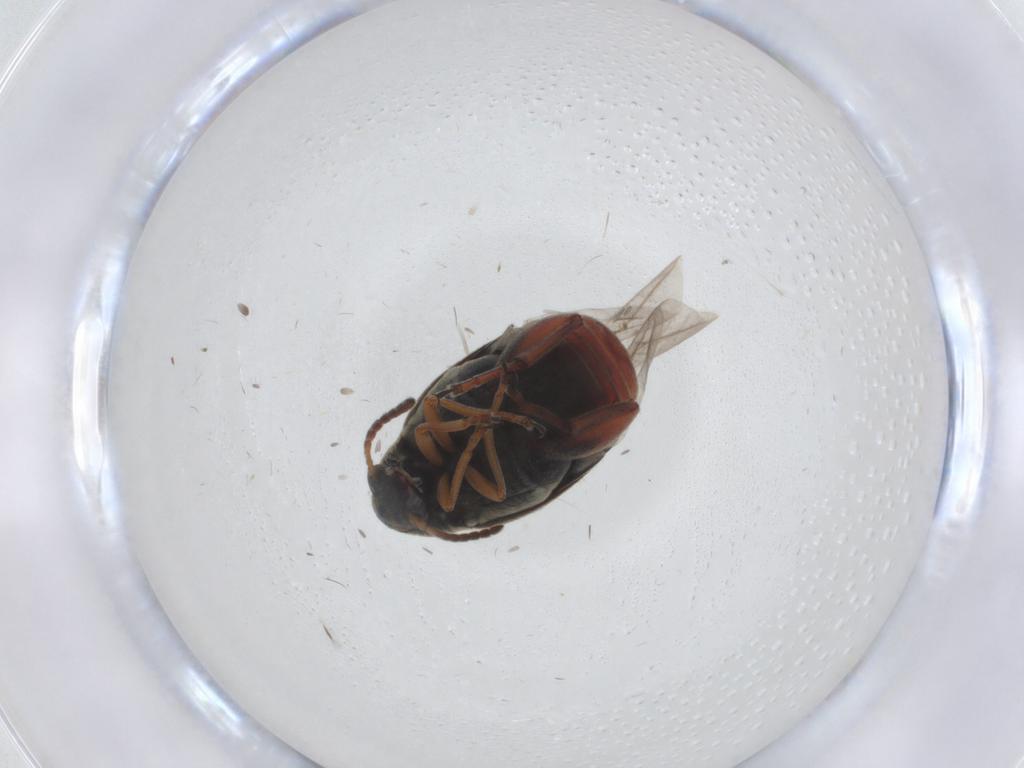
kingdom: Animalia
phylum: Arthropoda
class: Insecta
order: Coleoptera
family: Chrysomelidae
